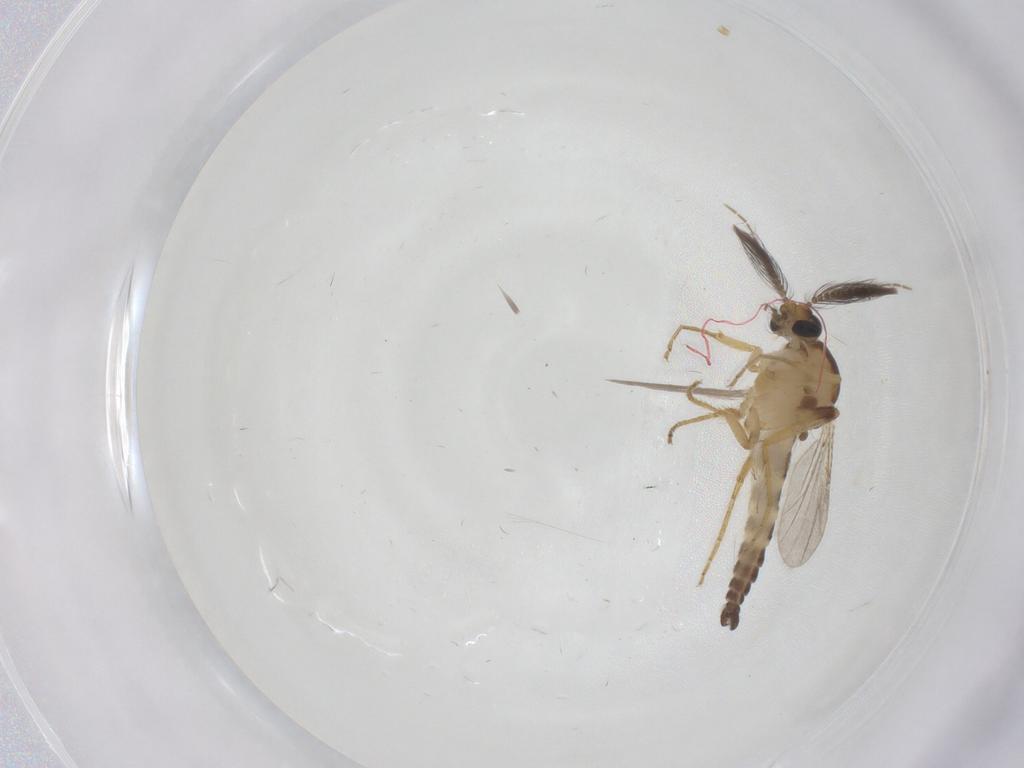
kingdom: Animalia
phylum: Arthropoda
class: Insecta
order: Diptera
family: Ceratopogonidae
